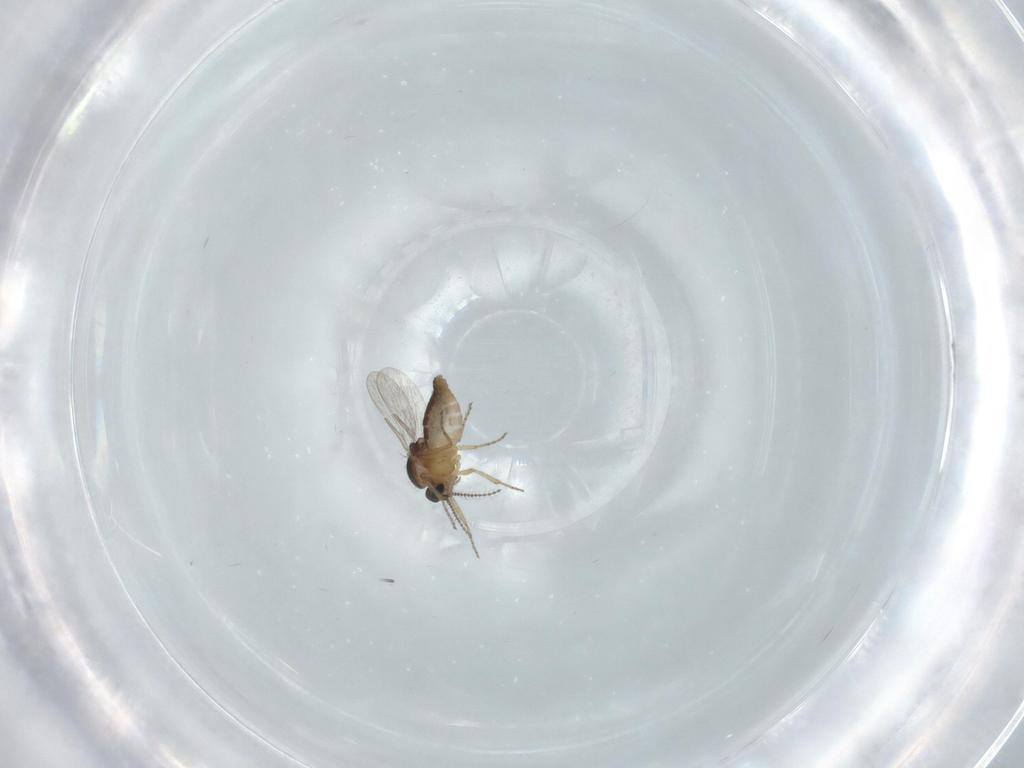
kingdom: Animalia
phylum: Arthropoda
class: Insecta
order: Diptera
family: Ceratopogonidae
